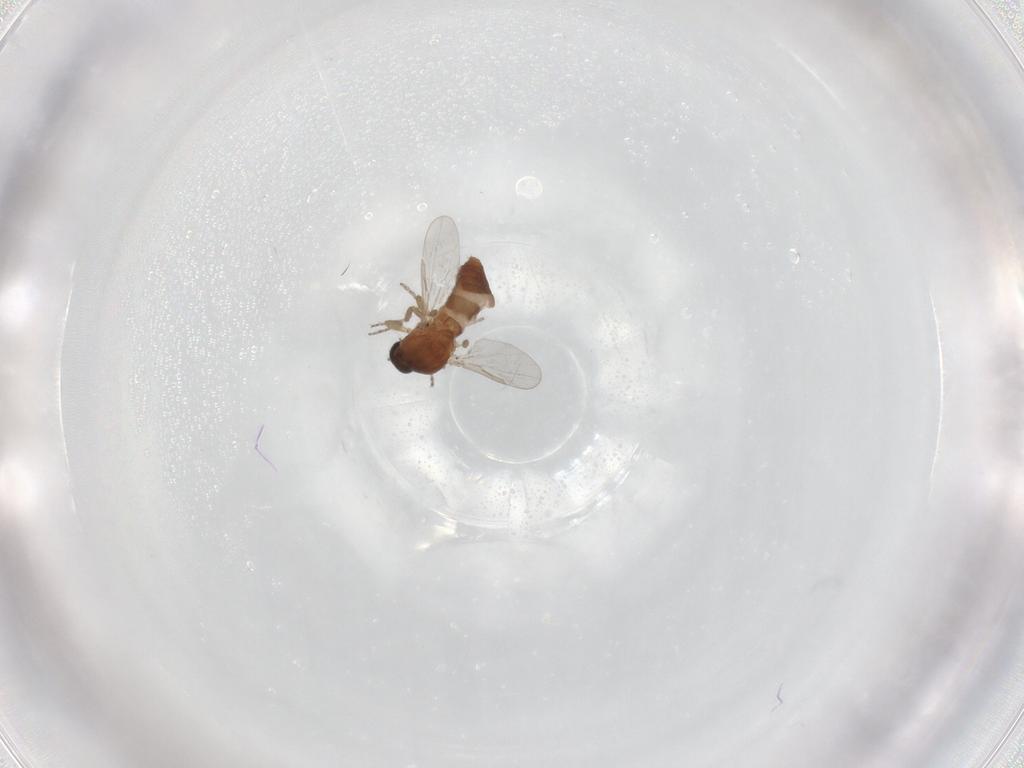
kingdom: Animalia
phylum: Arthropoda
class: Insecta
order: Diptera
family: Ceratopogonidae
